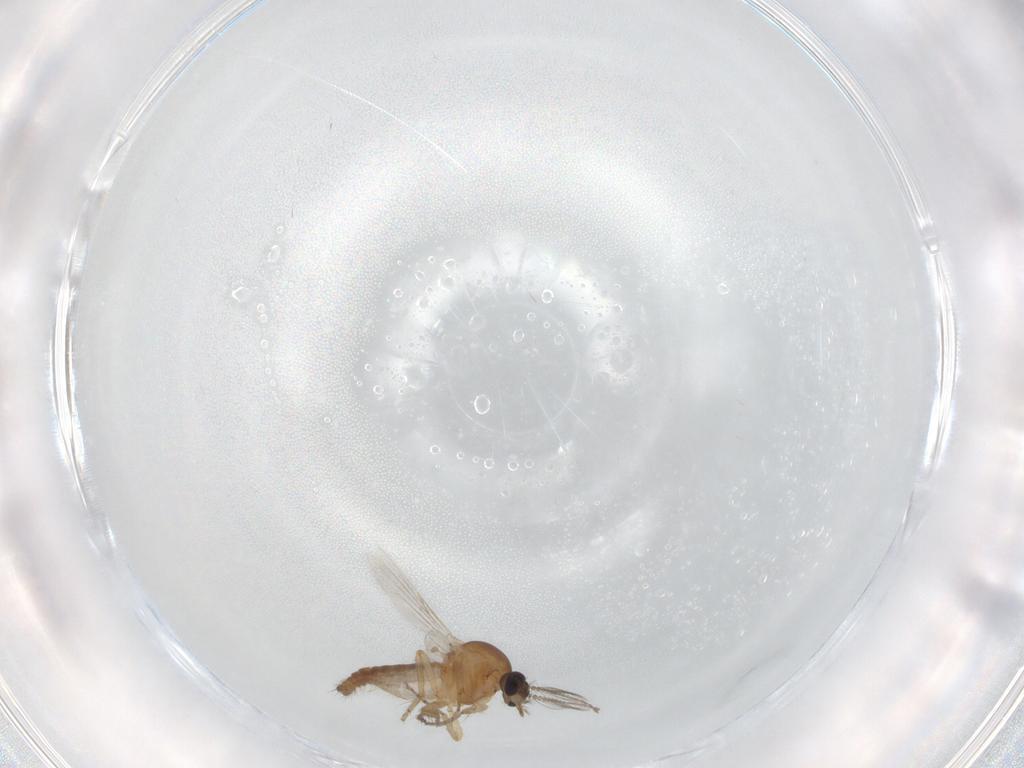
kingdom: Animalia
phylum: Arthropoda
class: Insecta
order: Diptera
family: Ceratopogonidae
